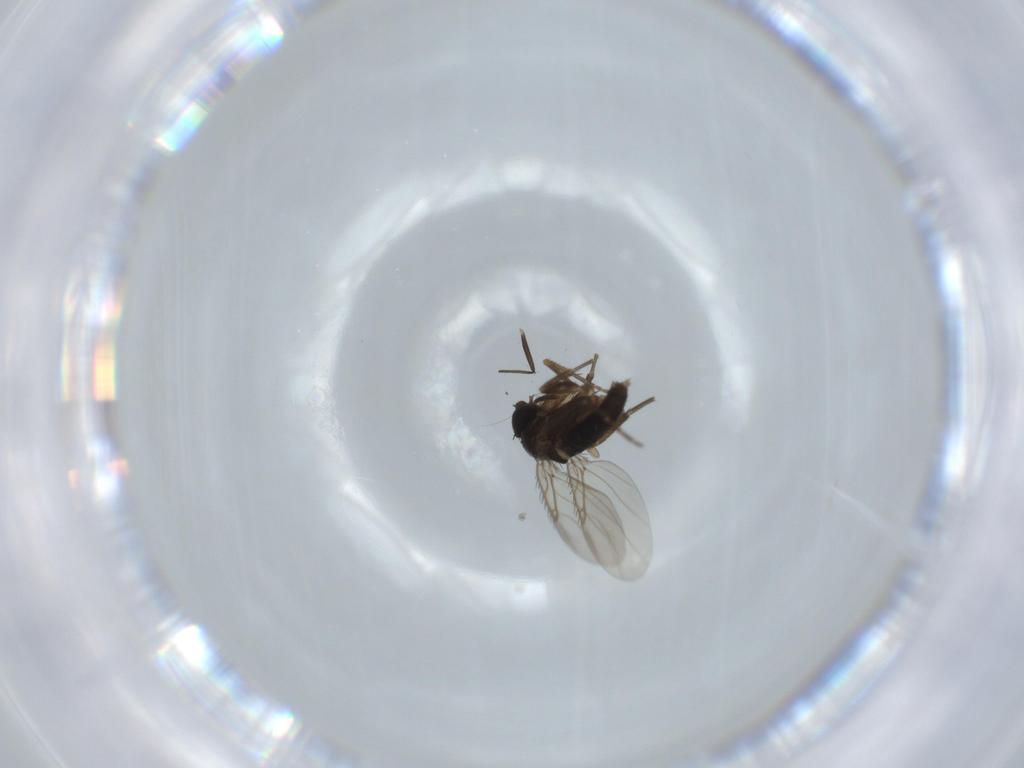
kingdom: Animalia
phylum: Arthropoda
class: Insecta
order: Diptera
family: Phoridae
